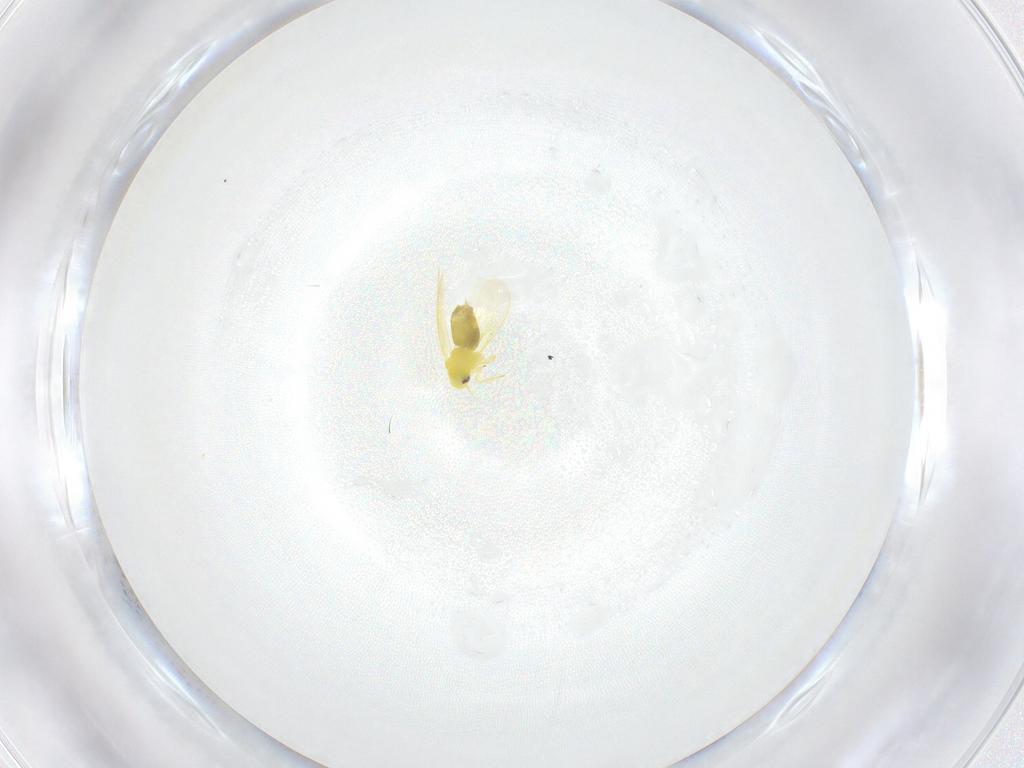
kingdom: Animalia
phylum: Arthropoda
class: Insecta
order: Hemiptera
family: Aleyrodidae
